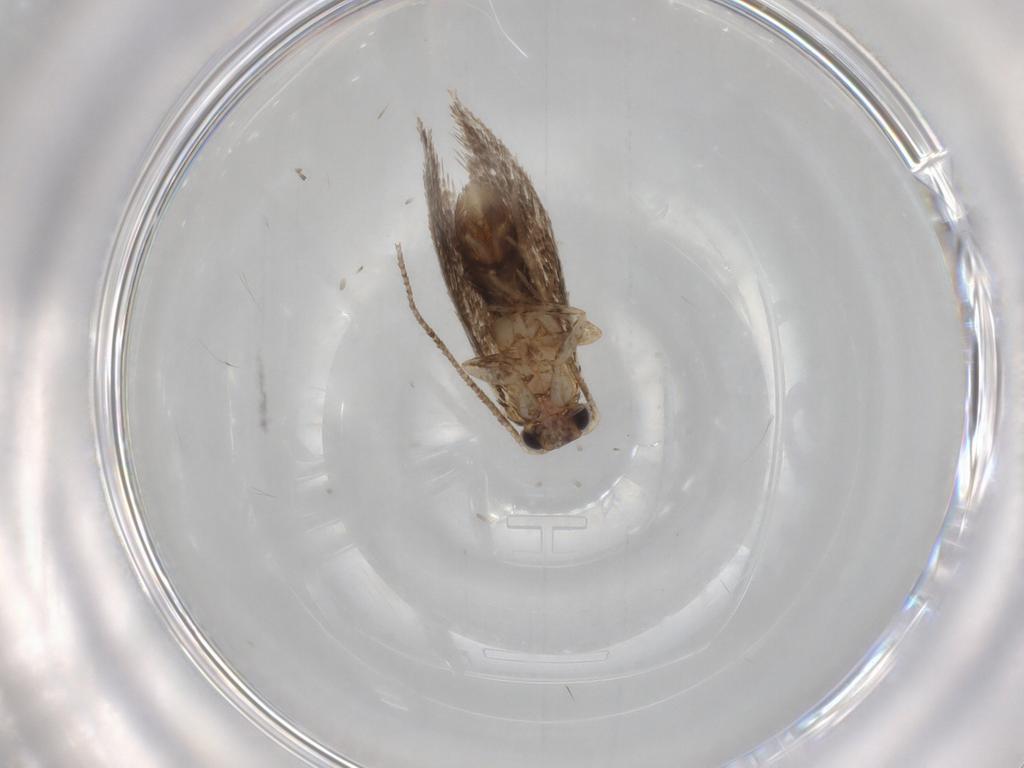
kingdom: Animalia
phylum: Arthropoda
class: Insecta
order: Lepidoptera
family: Tineidae
